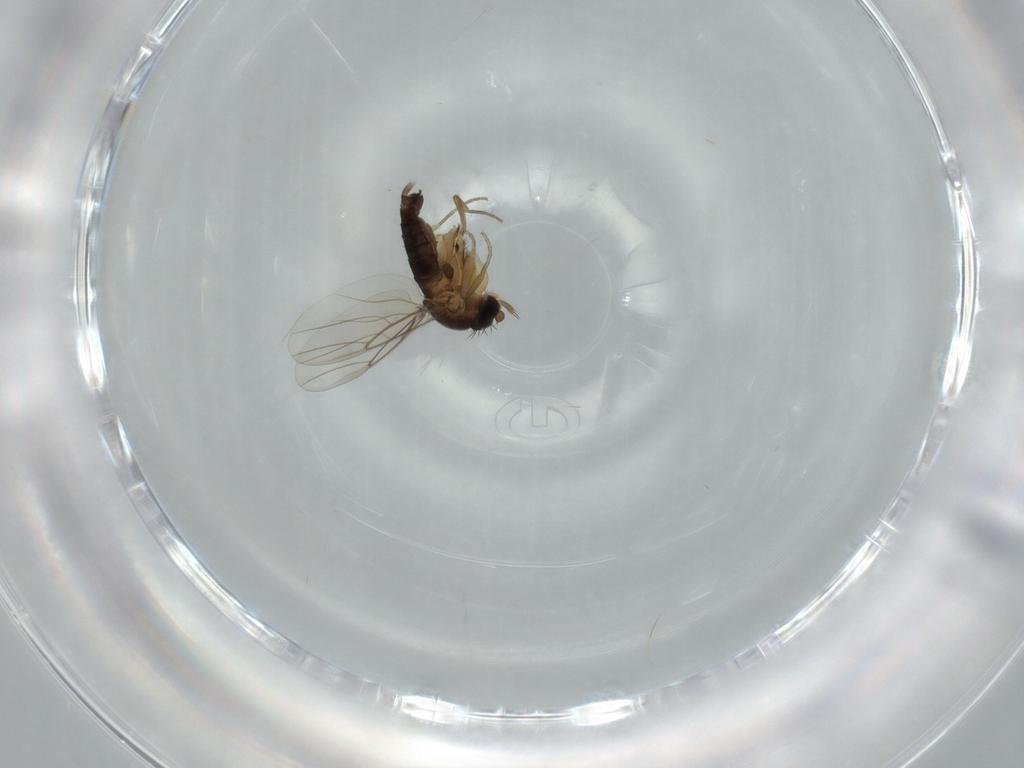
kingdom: Animalia
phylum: Arthropoda
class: Insecta
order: Diptera
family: Phoridae
